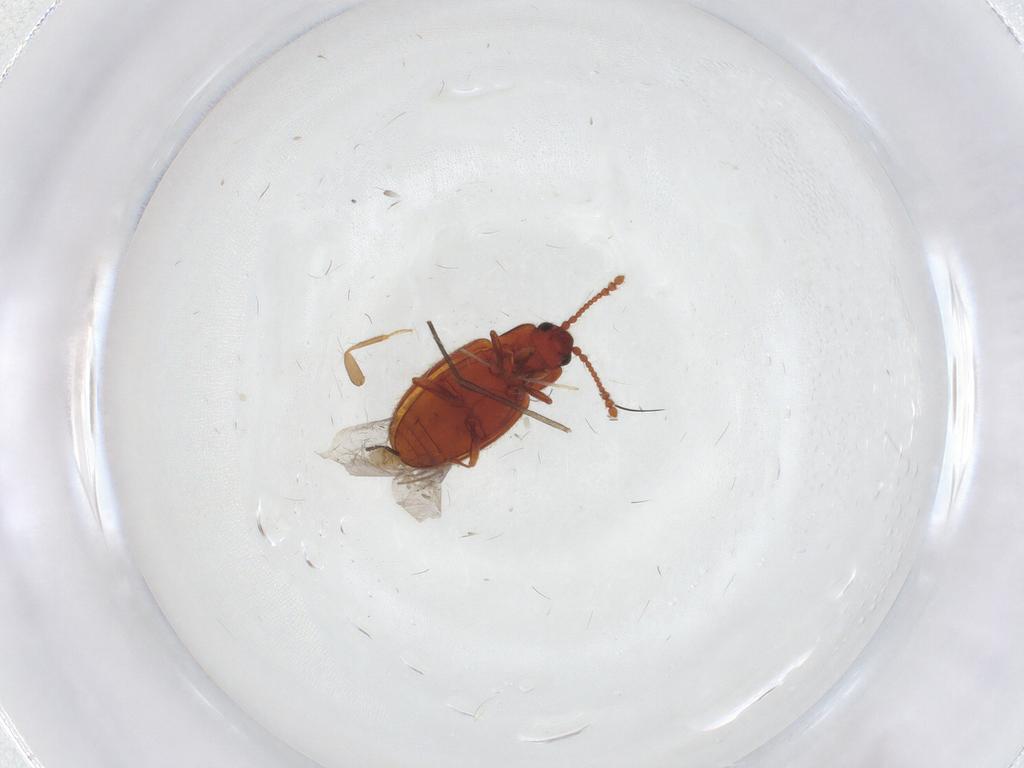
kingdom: Animalia
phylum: Arthropoda
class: Insecta
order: Coleoptera
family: Cryptophagidae
